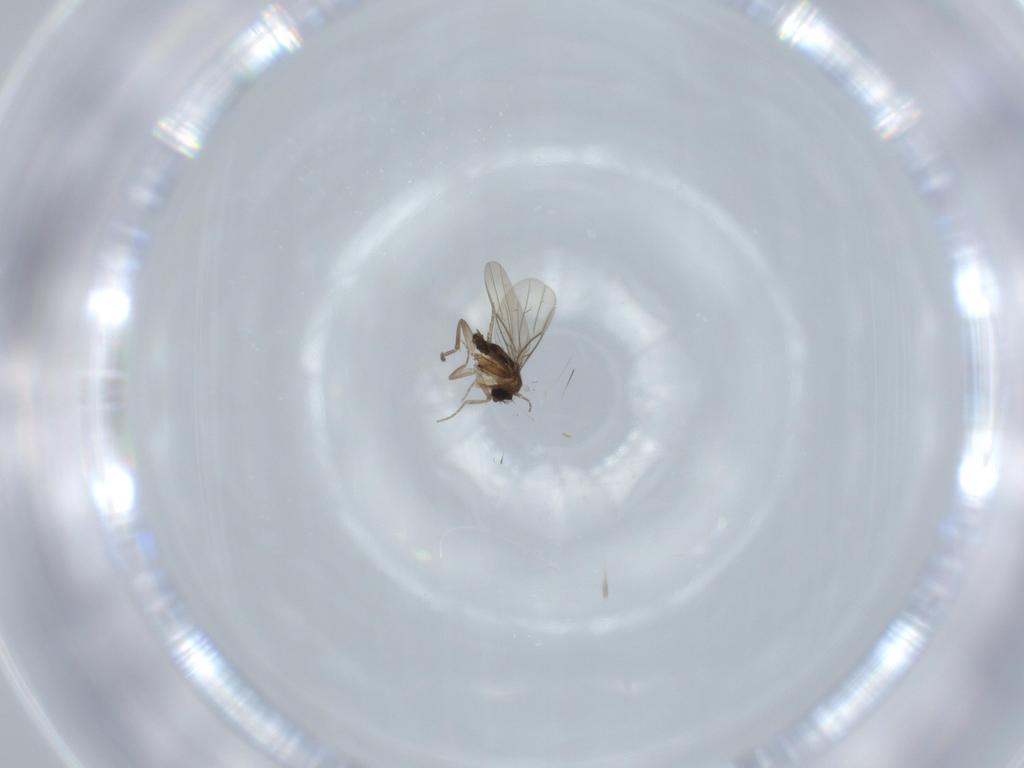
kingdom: Animalia
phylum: Arthropoda
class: Insecta
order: Diptera
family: Phoridae
